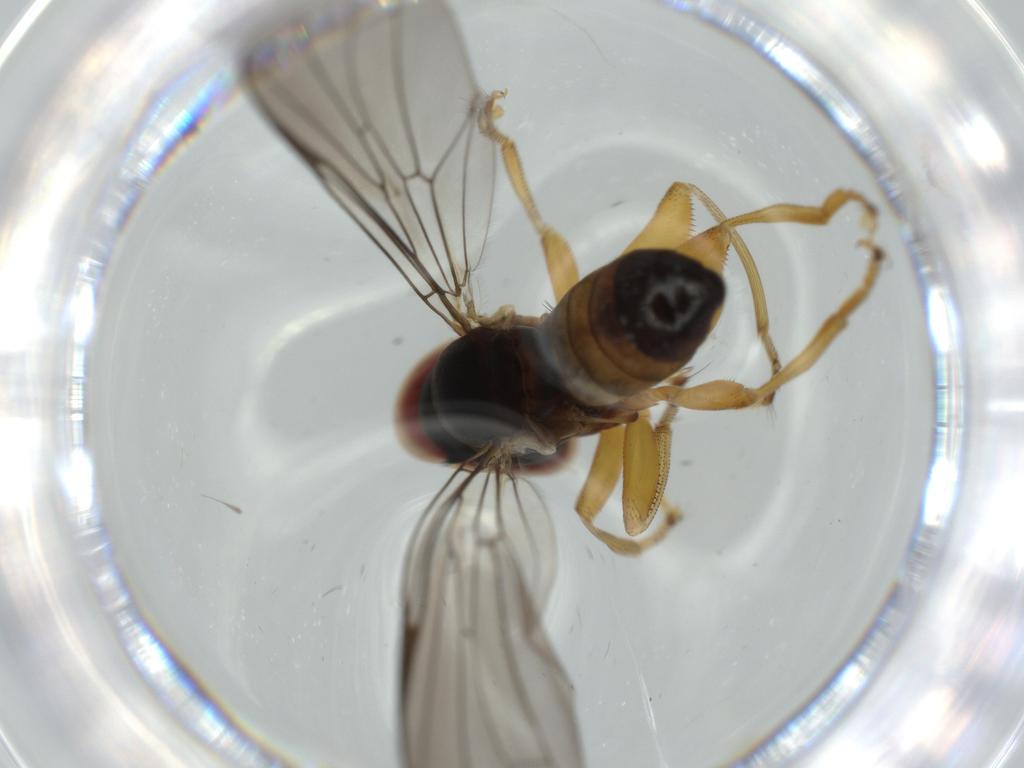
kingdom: Animalia
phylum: Arthropoda
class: Insecta
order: Diptera
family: Pipunculidae
